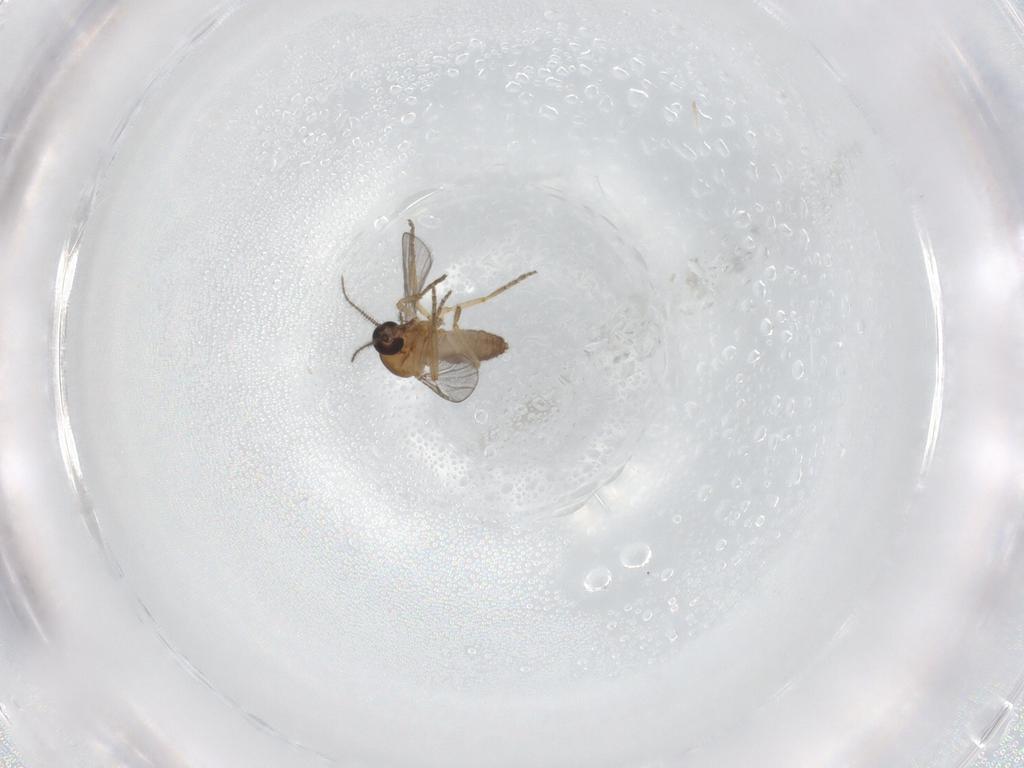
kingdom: Animalia
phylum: Arthropoda
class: Insecta
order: Diptera
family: Ceratopogonidae
